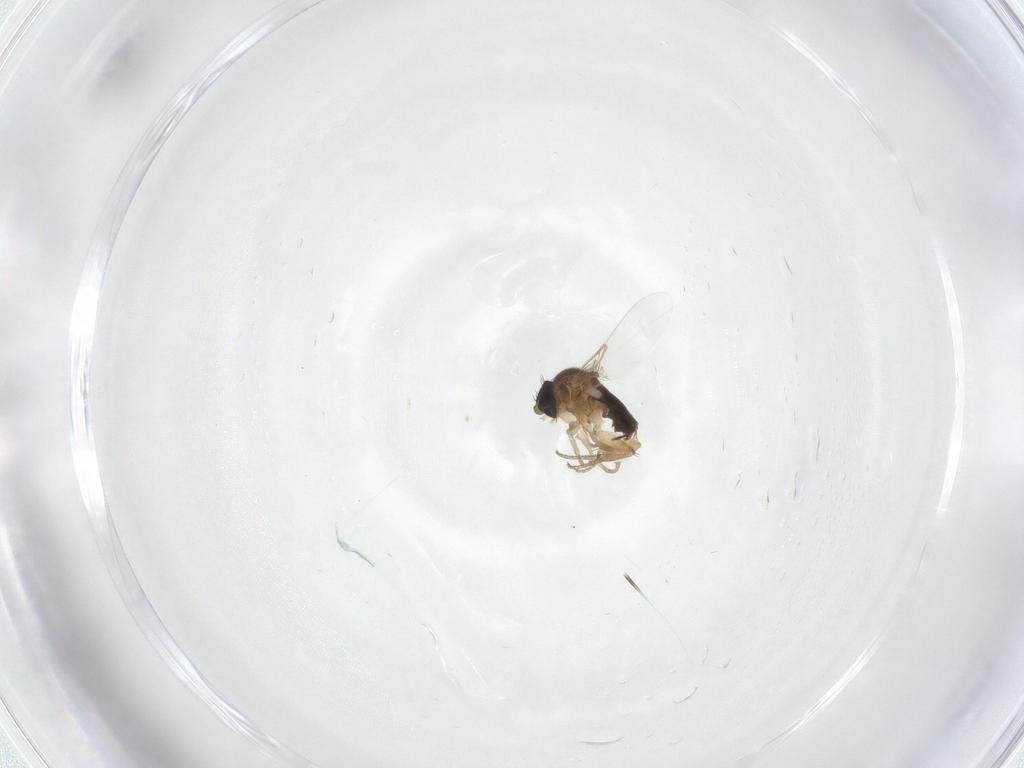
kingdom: Animalia
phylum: Arthropoda
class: Insecta
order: Diptera
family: Phoridae
